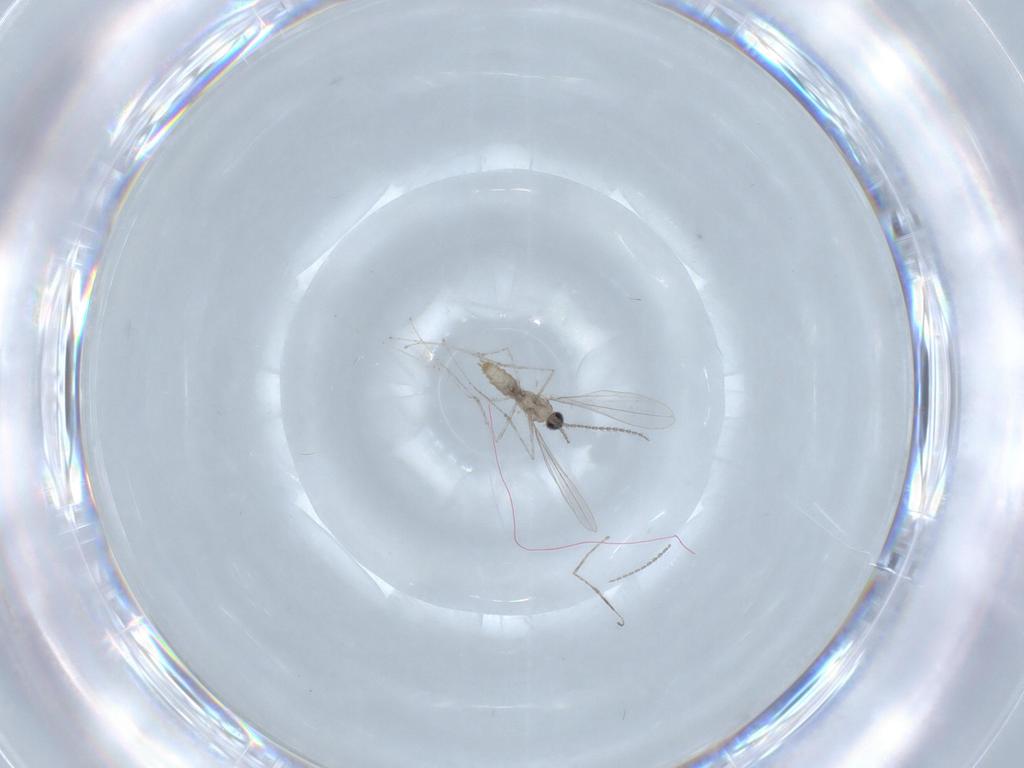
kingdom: Animalia
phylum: Arthropoda
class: Insecta
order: Diptera
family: Cecidomyiidae
